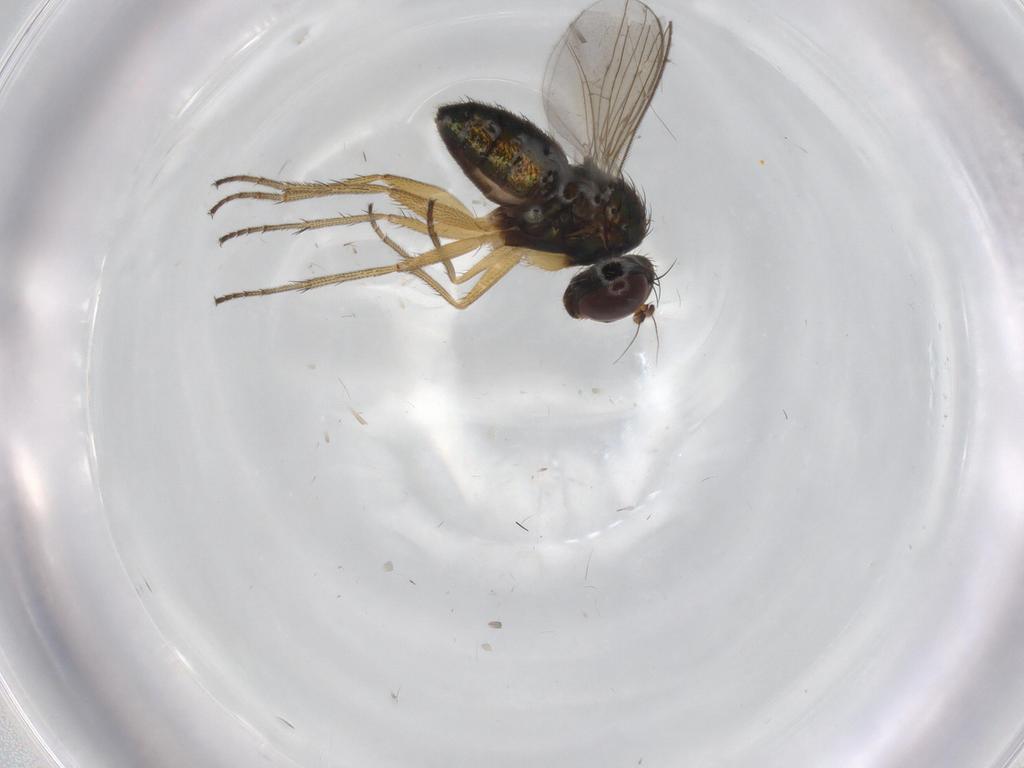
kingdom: Animalia
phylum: Arthropoda
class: Insecta
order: Diptera
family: Dolichopodidae
